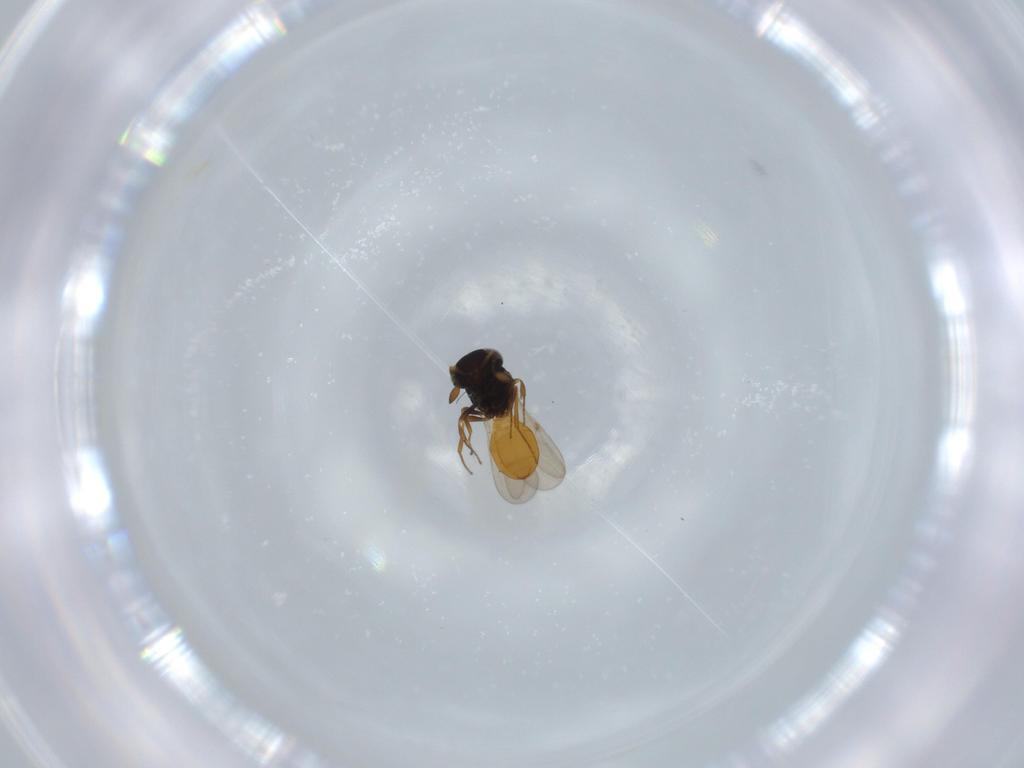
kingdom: Animalia
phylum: Arthropoda
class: Insecta
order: Hymenoptera
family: Scelionidae
